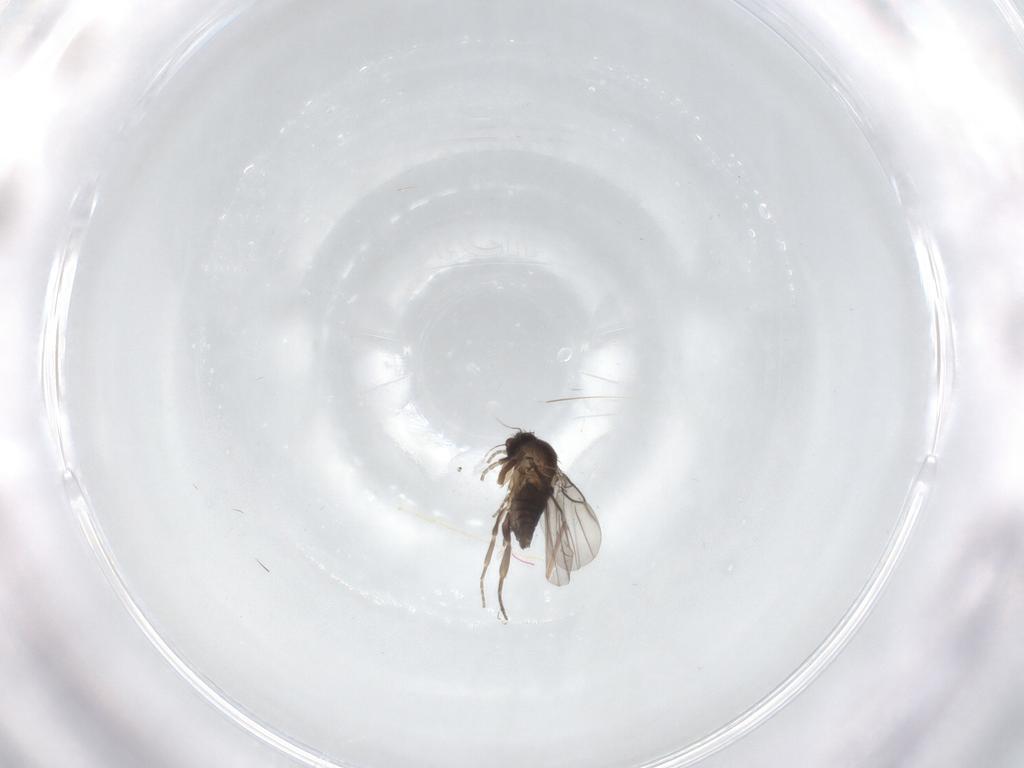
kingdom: Animalia
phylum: Arthropoda
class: Insecta
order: Diptera
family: Phoridae
